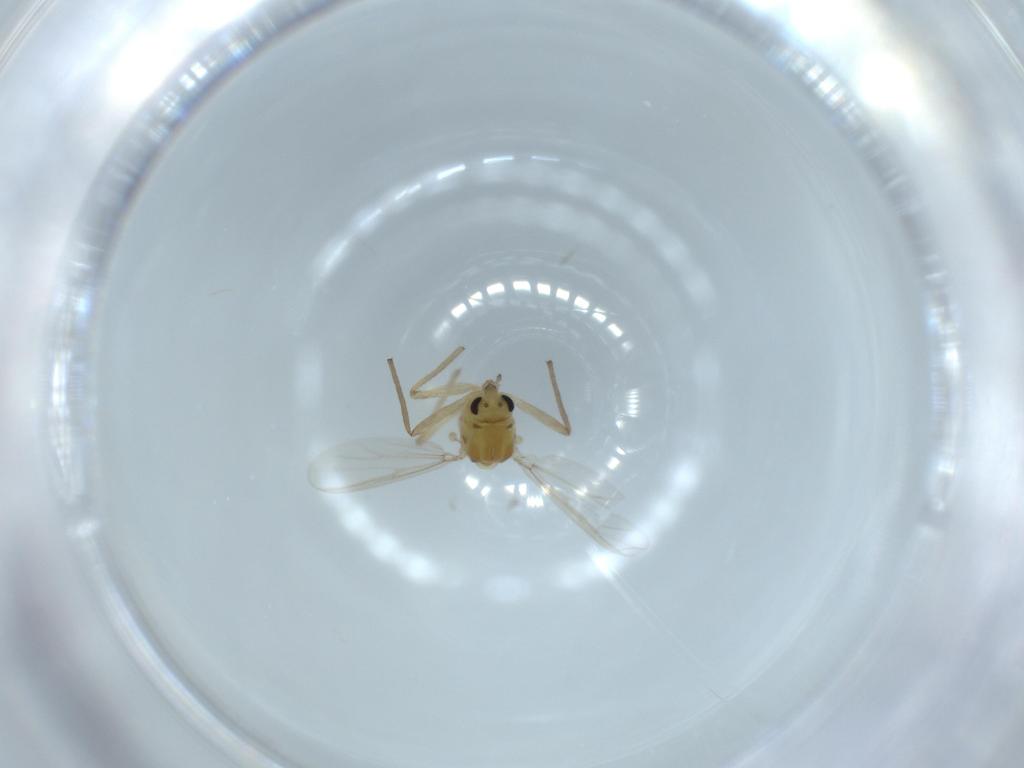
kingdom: Animalia
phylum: Arthropoda
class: Insecta
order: Diptera
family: Chironomidae
